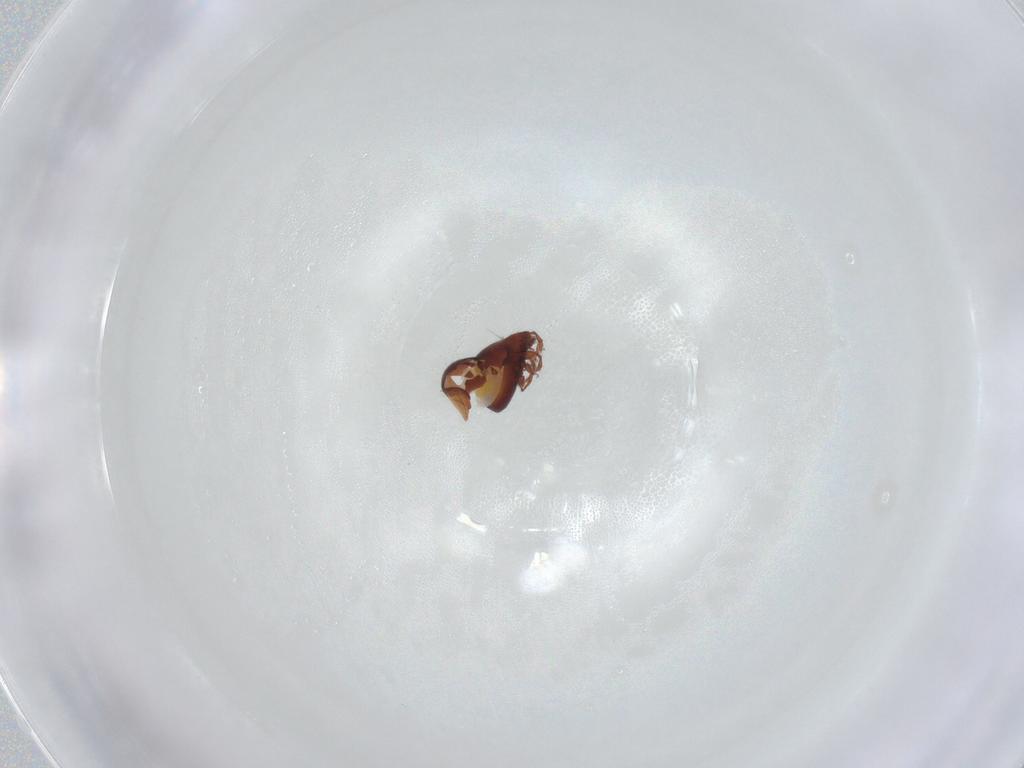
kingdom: Animalia
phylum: Arthropoda
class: Arachnida
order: Sarcoptiformes
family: Humerobatidae
